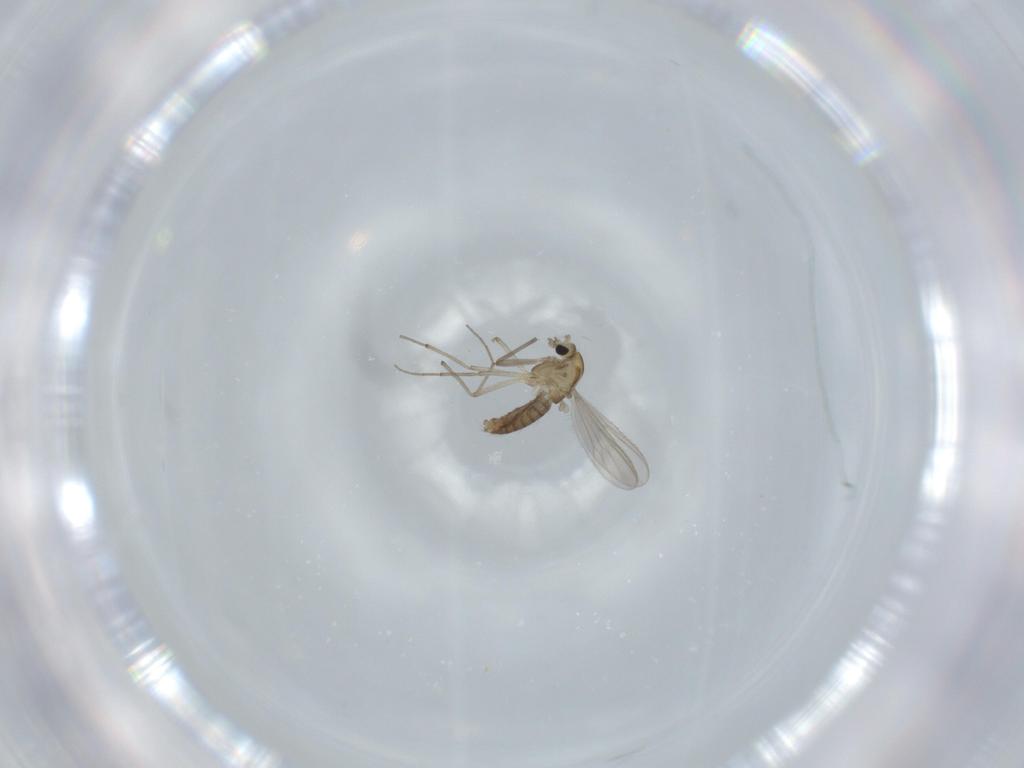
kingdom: Animalia
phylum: Arthropoda
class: Insecta
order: Diptera
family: Chironomidae
